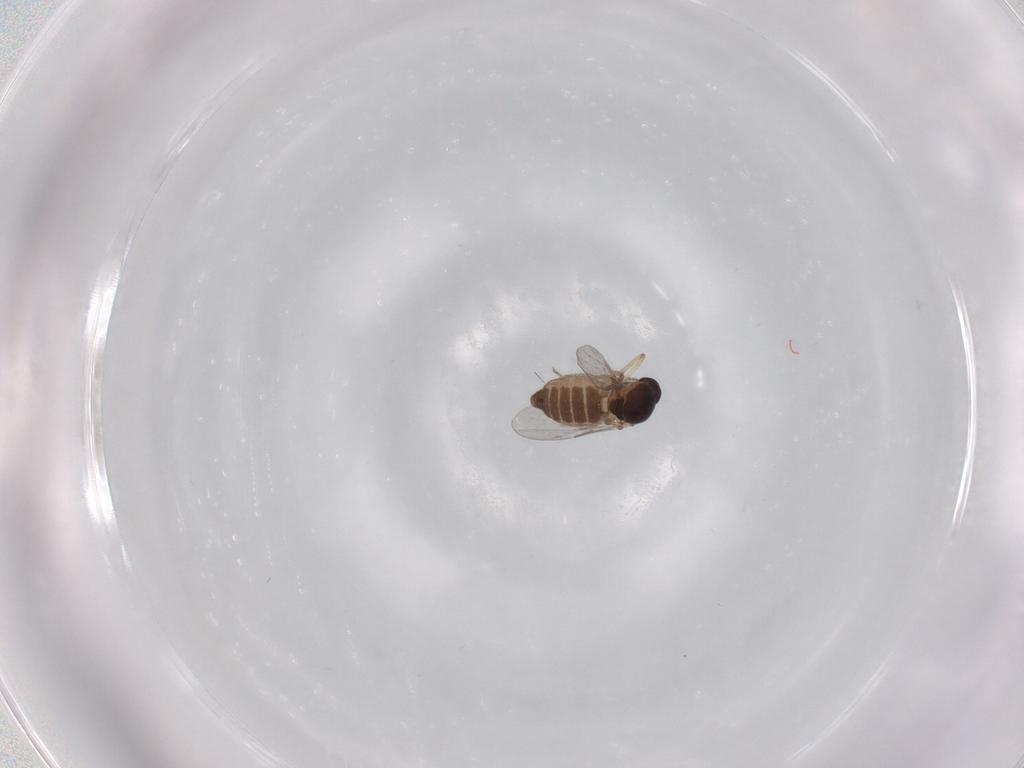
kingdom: Animalia
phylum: Arthropoda
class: Insecta
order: Diptera
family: Ceratopogonidae
